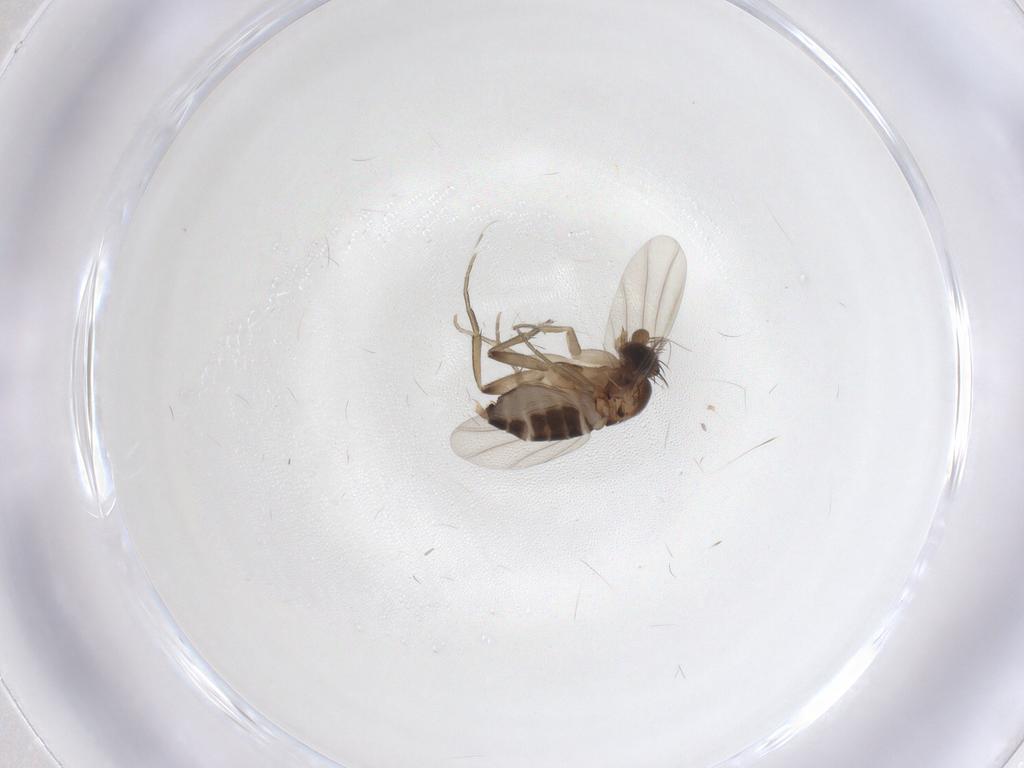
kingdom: Animalia
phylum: Arthropoda
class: Insecta
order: Diptera
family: Phoridae
